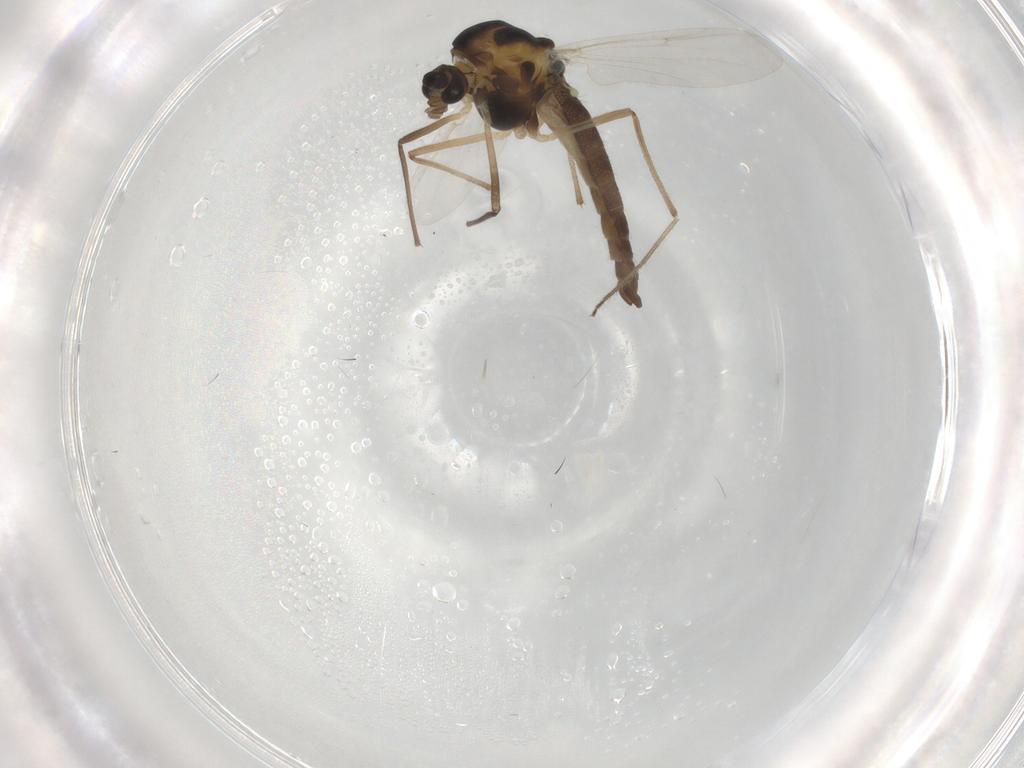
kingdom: Animalia
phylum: Arthropoda
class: Insecta
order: Diptera
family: Chironomidae
